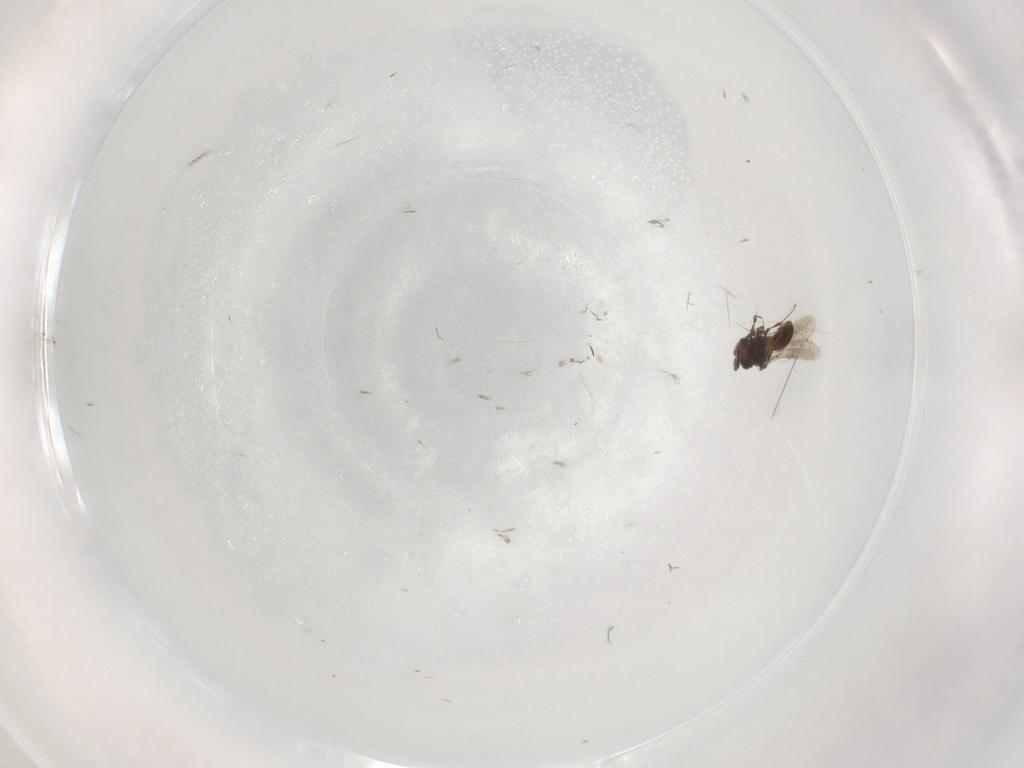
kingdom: Animalia
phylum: Arthropoda
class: Insecta
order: Hymenoptera
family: Scelionidae
